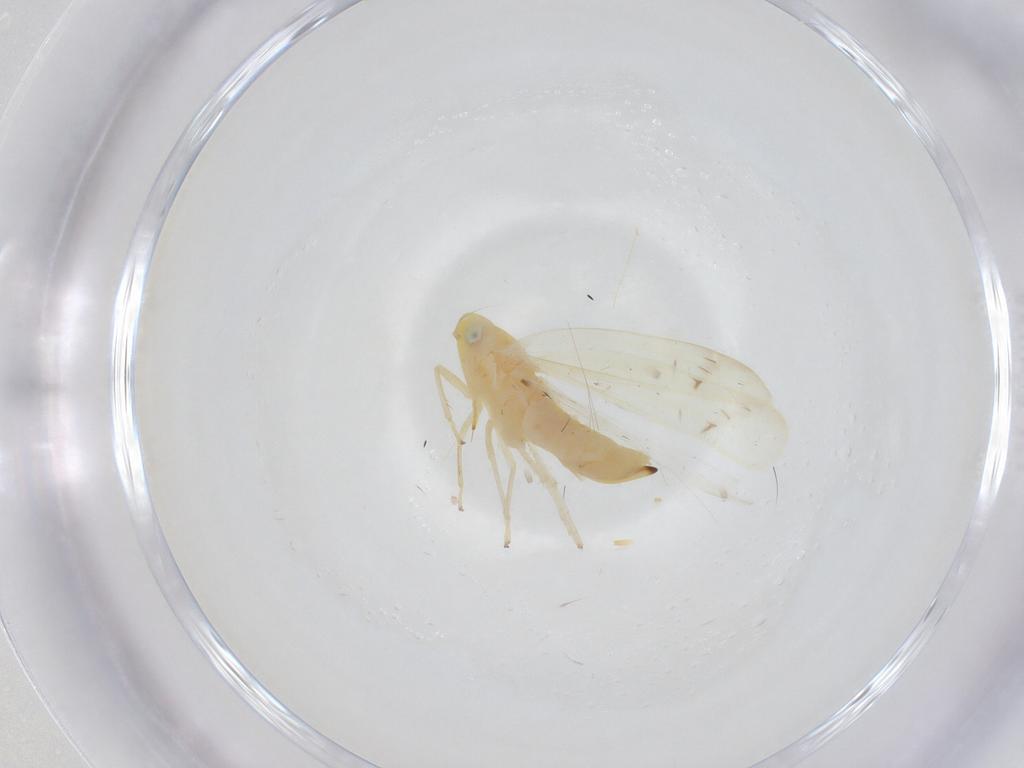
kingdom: Animalia
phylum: Arthropoda
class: Insecta
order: Hemiptera
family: Cicadellidae
